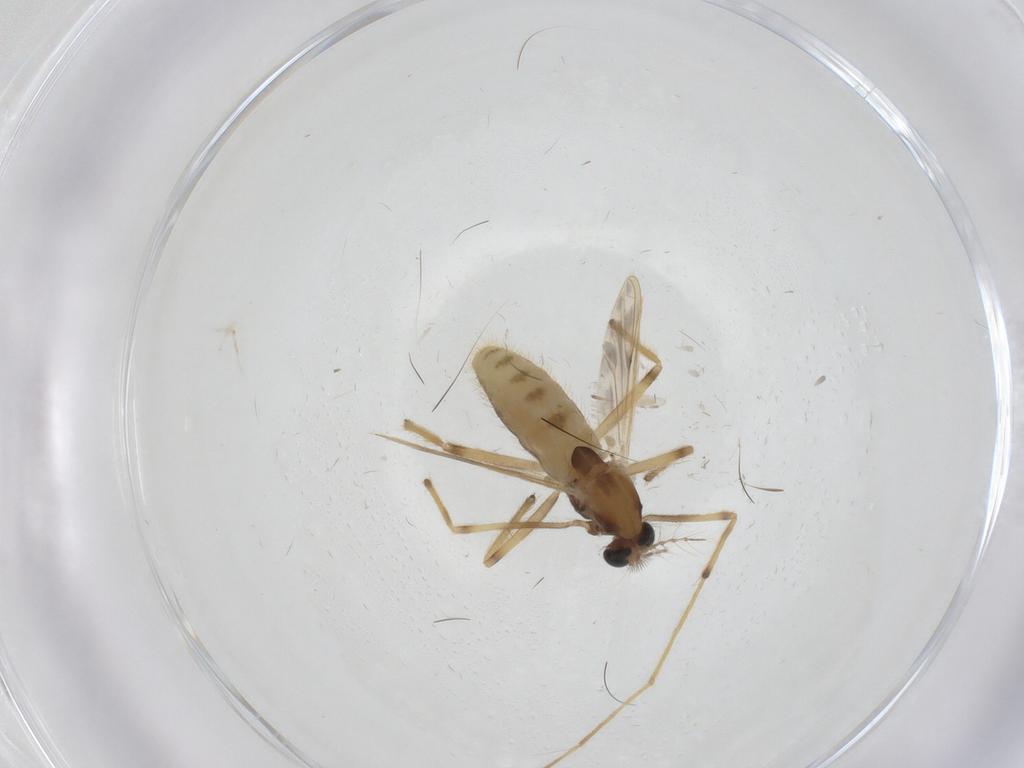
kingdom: Animalia
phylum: Arthropoda
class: Insecta
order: Diptera
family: Chironomidae
